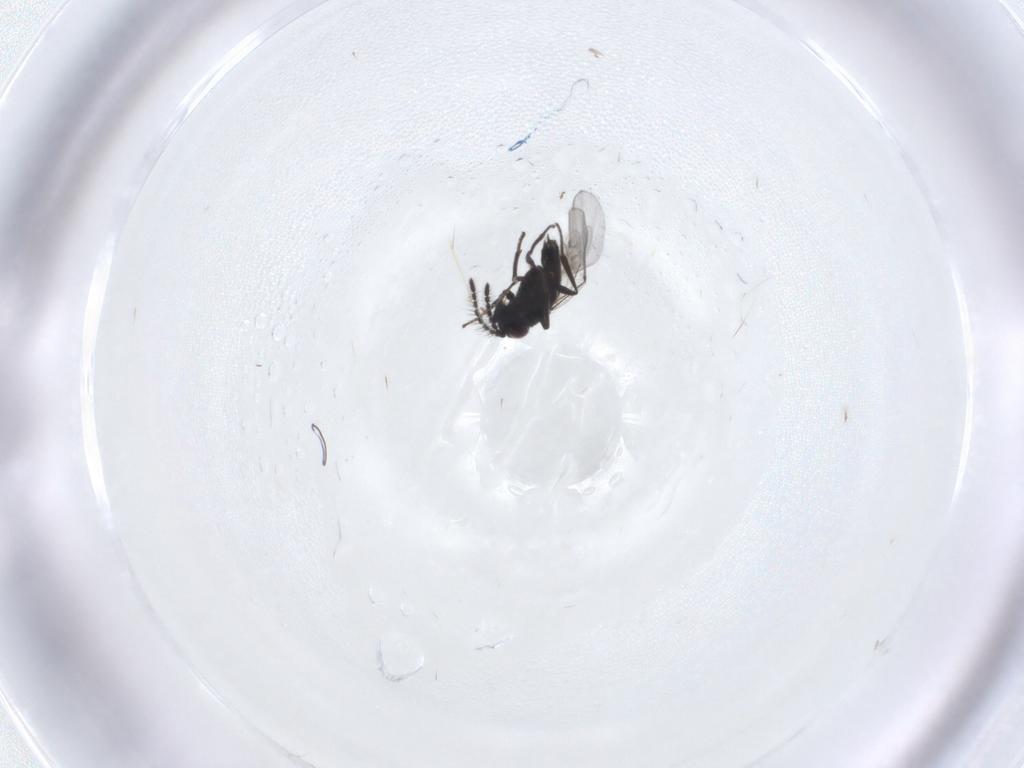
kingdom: Animalia
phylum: Arthropoda
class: Insecta
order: Hymenoptera
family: Encyrtidae
